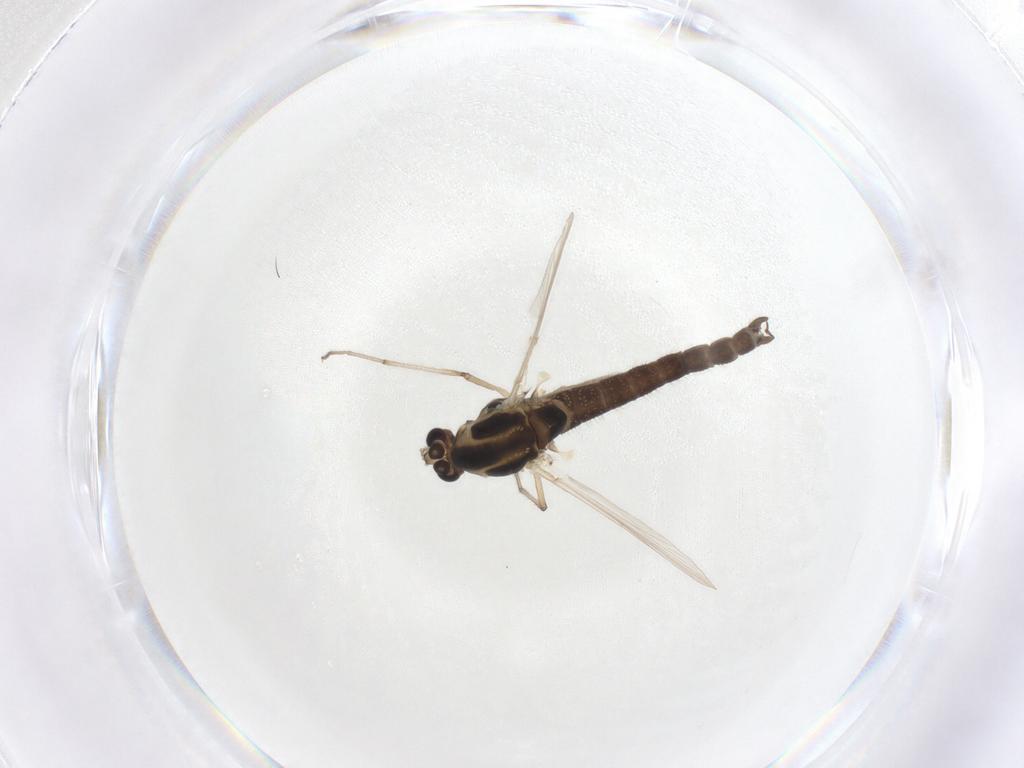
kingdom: Animalia
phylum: Arthropoda
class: Insecta
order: Diptera
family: Chironomidae
